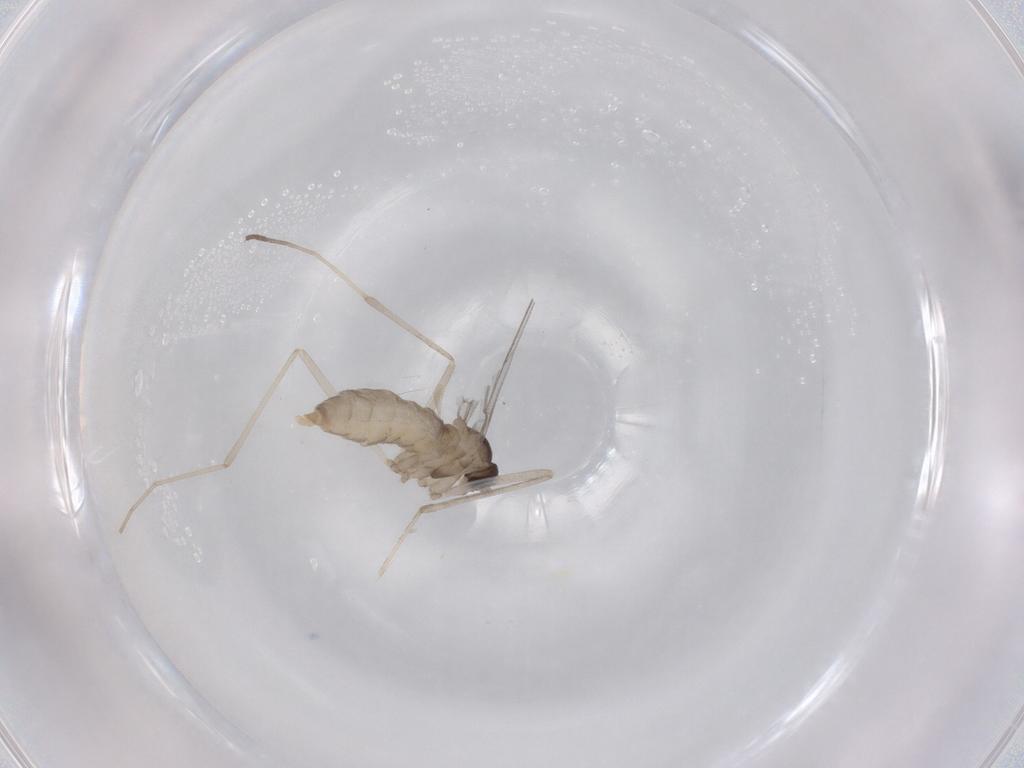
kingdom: Animalia
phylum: Arthropoda
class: Insecta
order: Diptera
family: Cecidomyiidae
